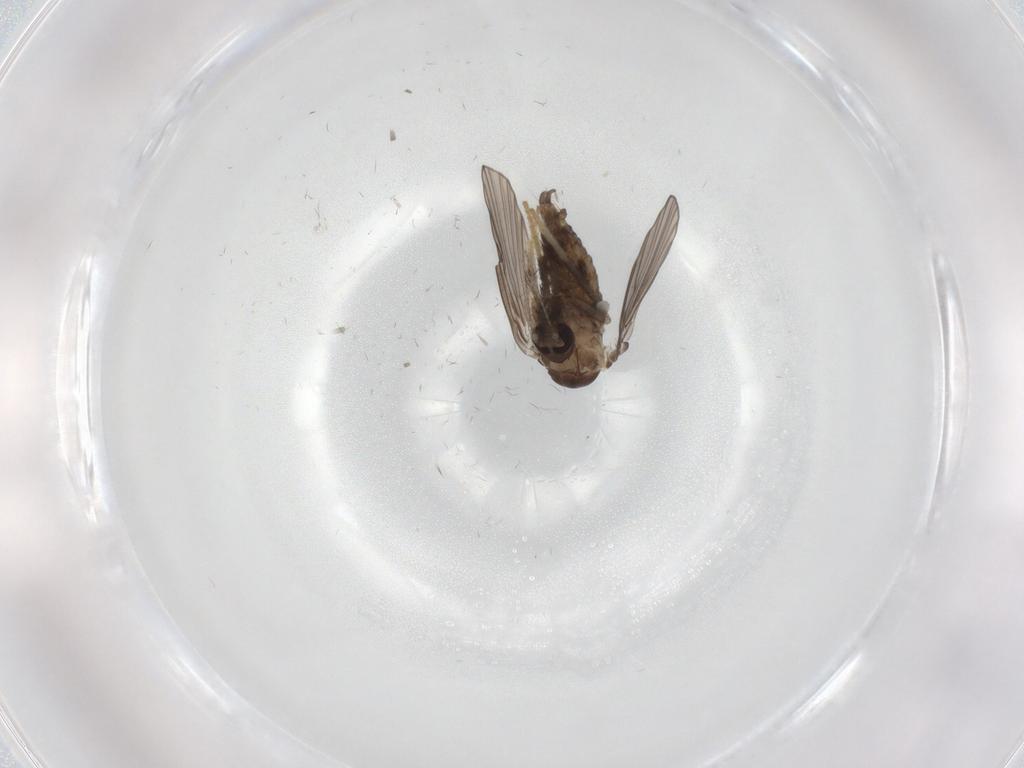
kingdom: Animalia
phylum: Arthropoda
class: Insecta
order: Diptera
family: Psychodidae
